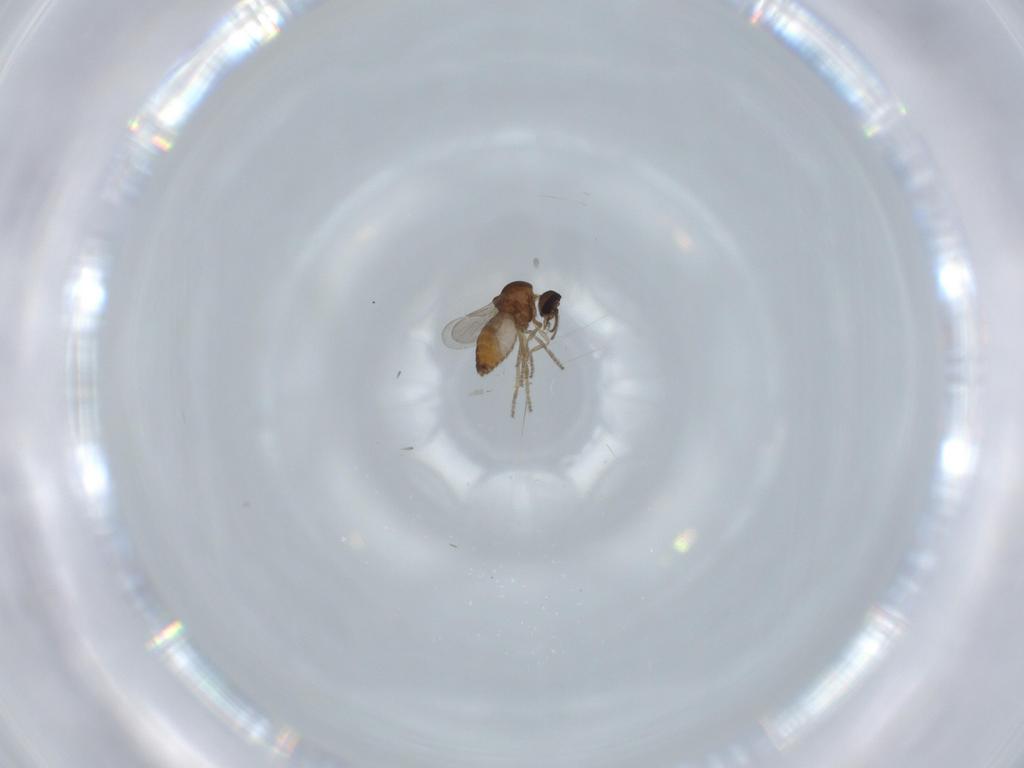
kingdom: Animalia
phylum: Arthropoda
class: Insecta
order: Diptera
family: Ceratopogonidae
